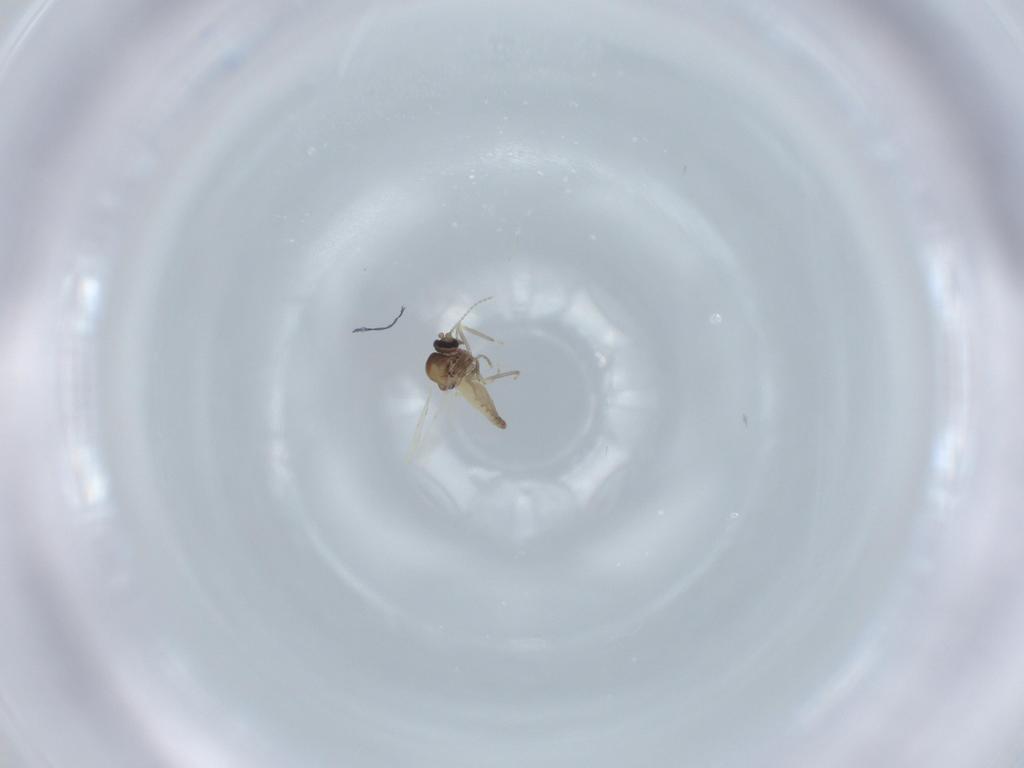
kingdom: Animalia
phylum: Arthropoda
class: Insecta
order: Diptera
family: Ceratopogonidae
